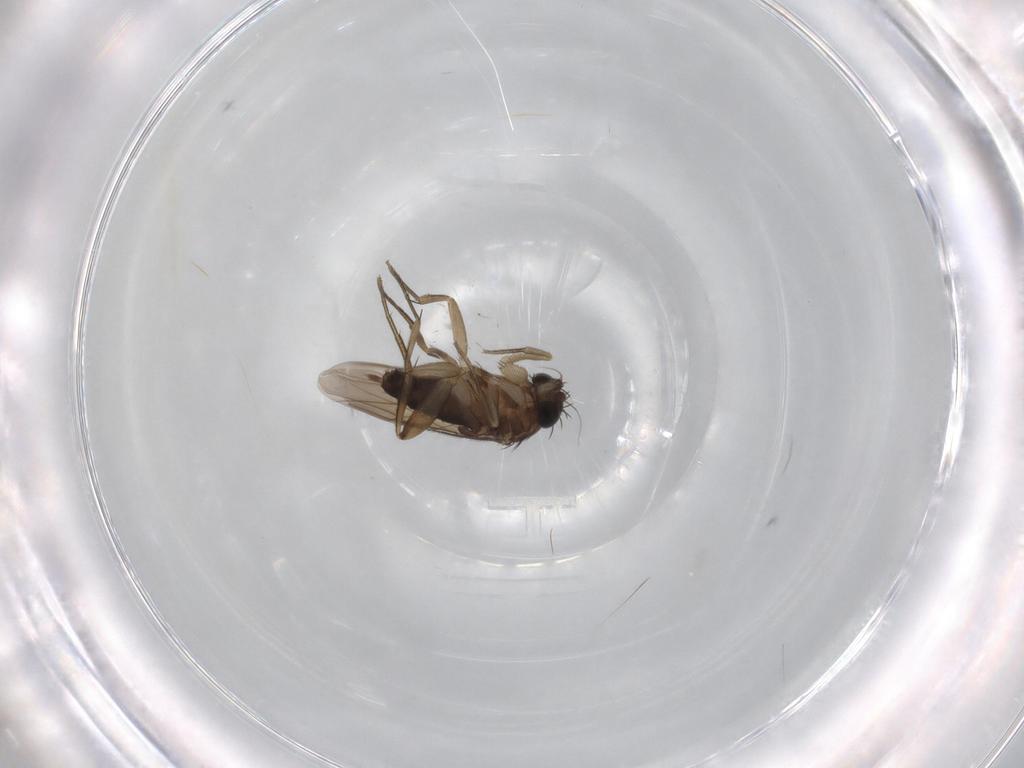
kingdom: Animalia
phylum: Arthropoda
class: Insecta
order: Diptera
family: Phoridae
